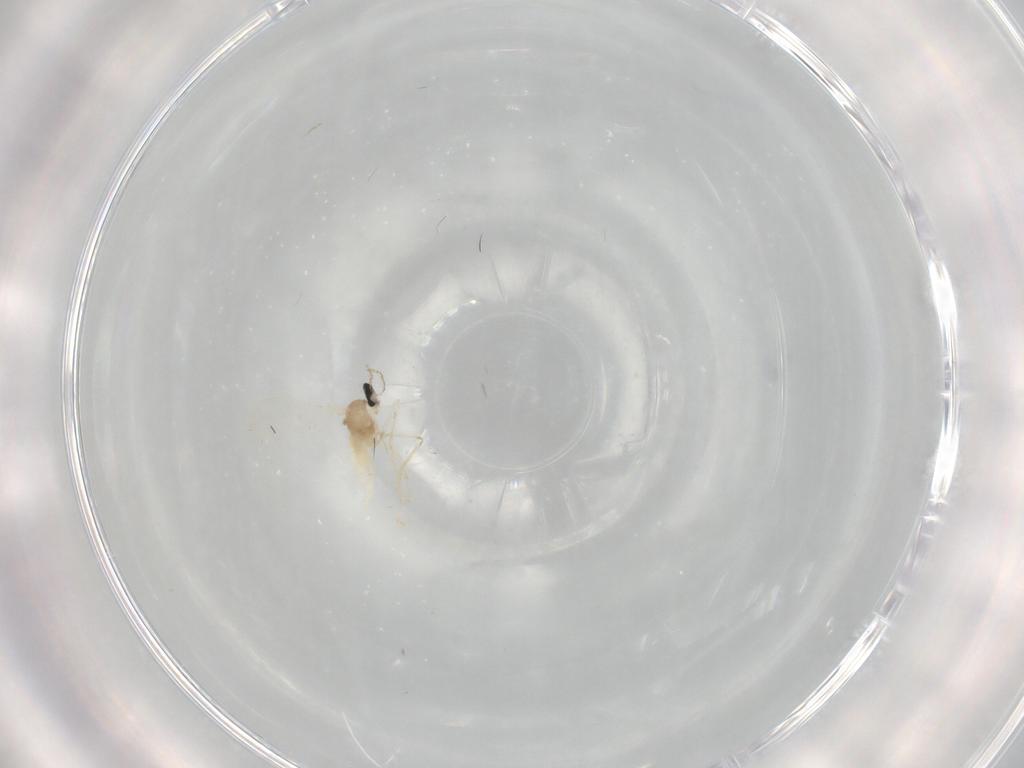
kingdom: Animalia
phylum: Arthropoda
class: Insecta
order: Diptera
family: Cecidomyiidae
